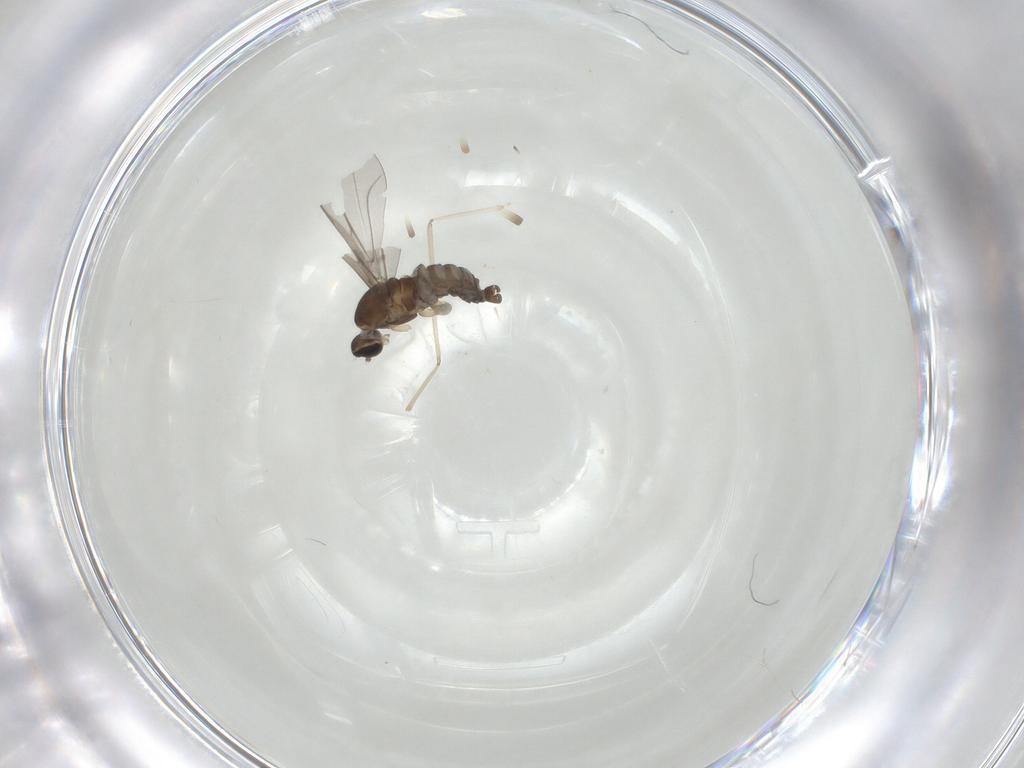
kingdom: Animalia
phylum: Arthropoda
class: Insecta
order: Diptera
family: Cecidomyiidae
